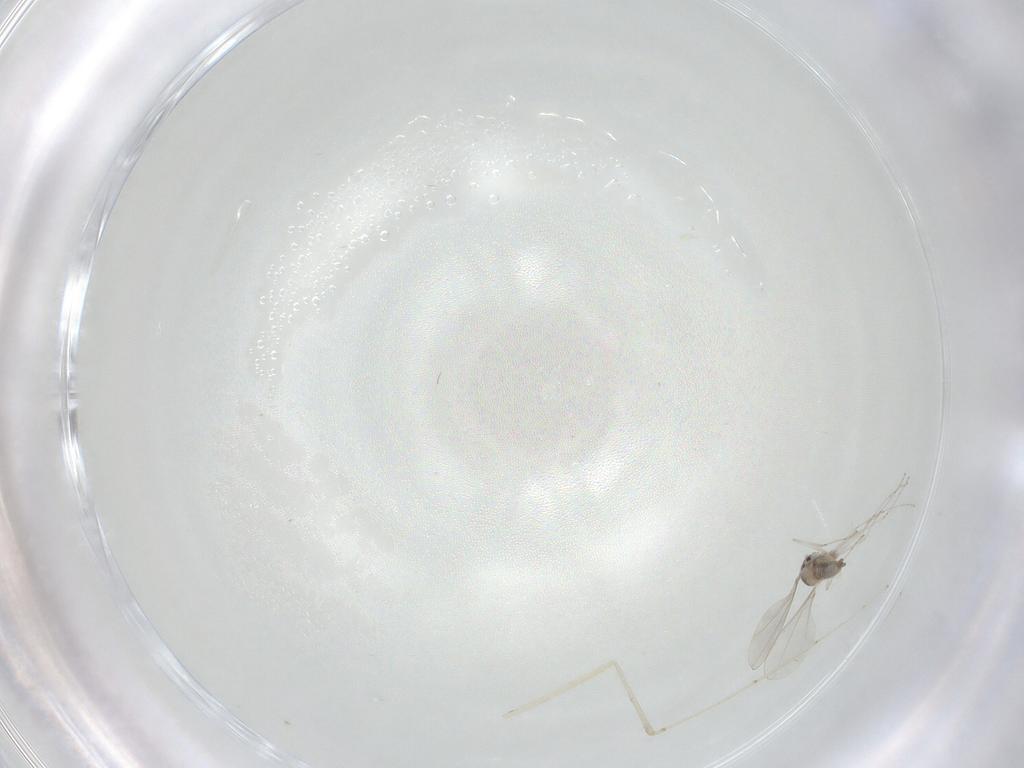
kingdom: Animalia
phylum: Arthropoda
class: Insecta
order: Diptera
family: Cecidomyiidae
